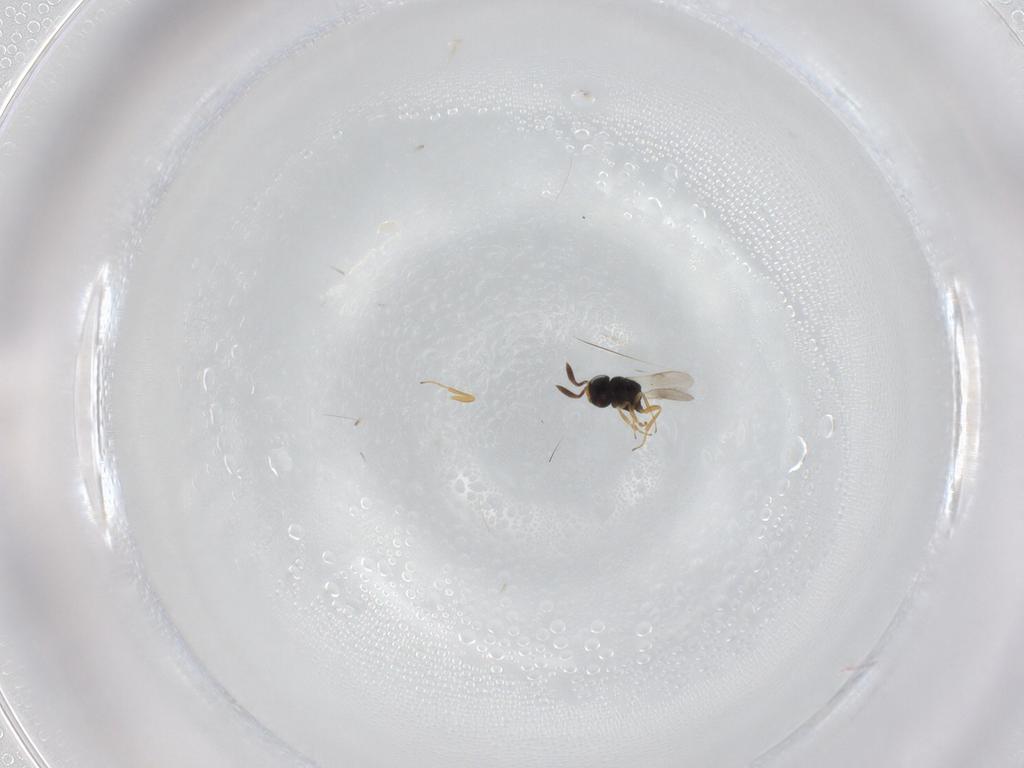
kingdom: Animalia
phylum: Arthropoda
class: Insecta
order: Hymenoptera
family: Scelionidae
